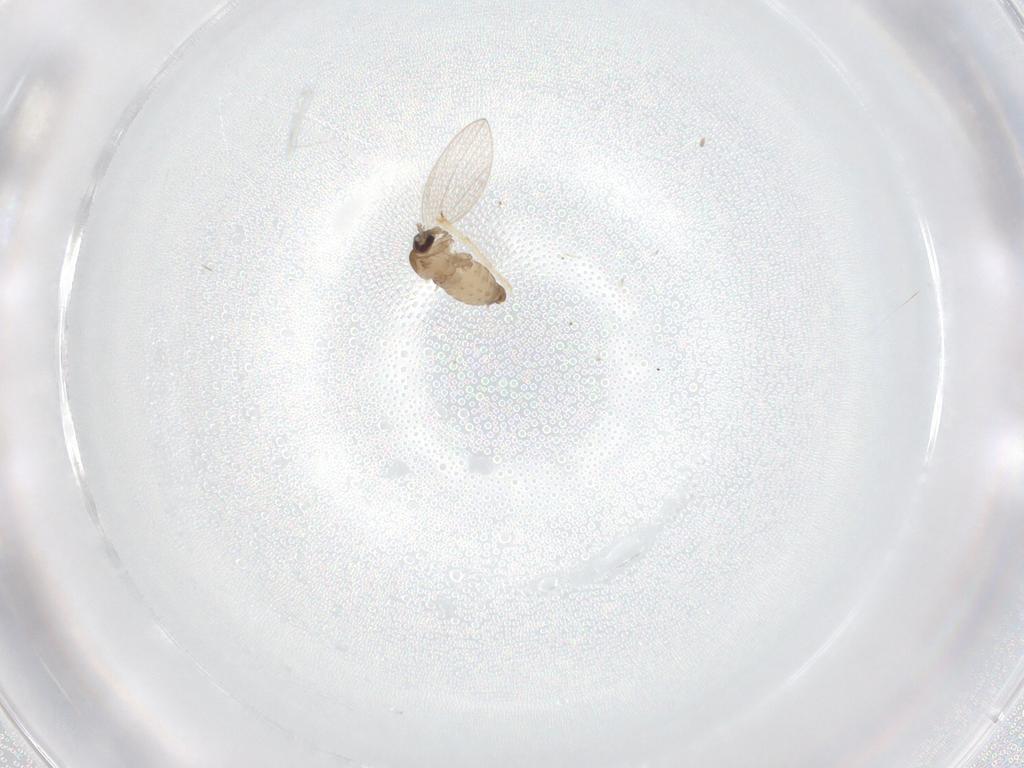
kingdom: Animalia
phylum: Arthropoda
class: Insecta
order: Diptera
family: Psychodidae
